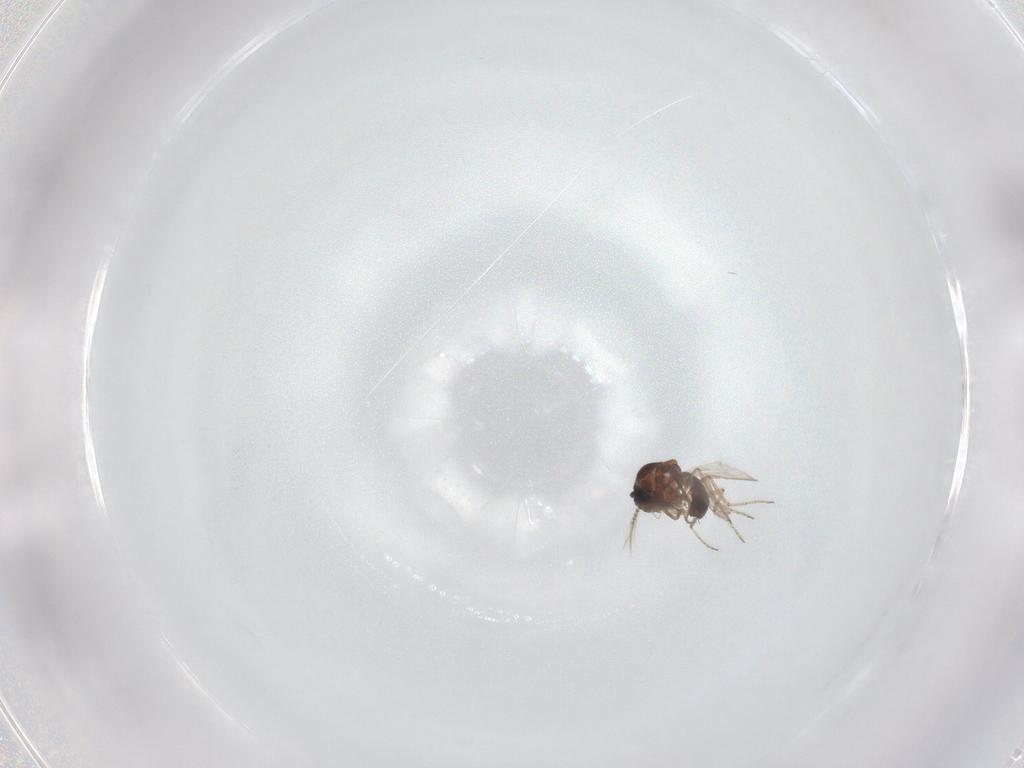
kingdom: Animalia
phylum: Arthropoda
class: Insecta
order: Diptera
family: Ceratopogonidae
